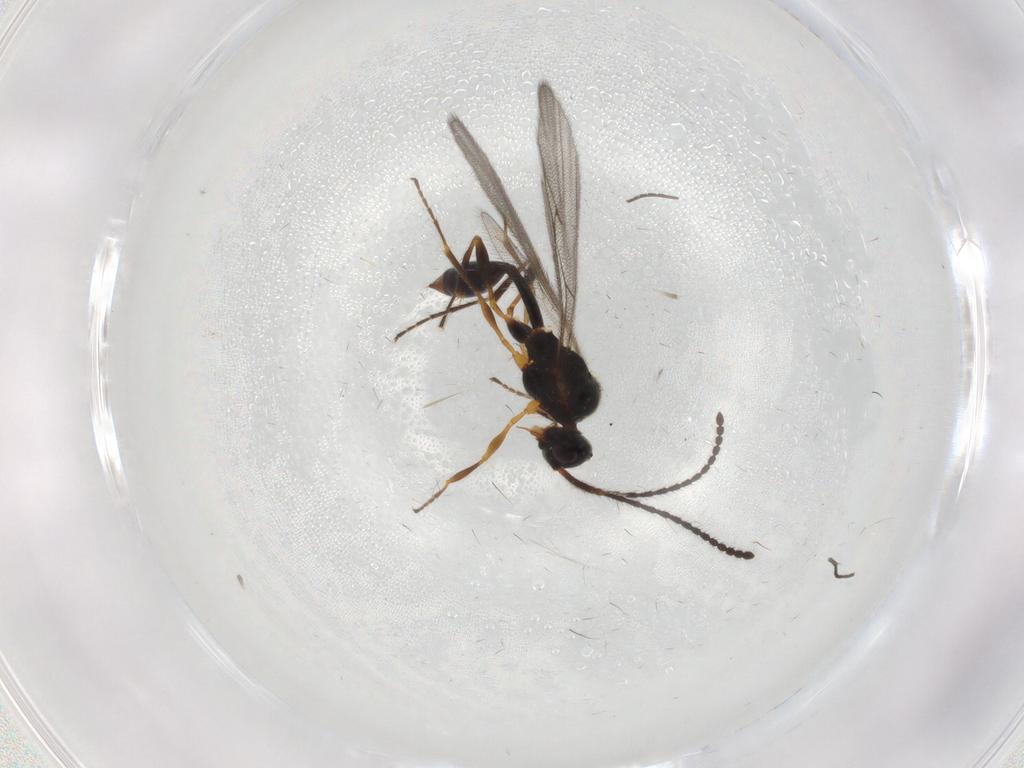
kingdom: Animalia
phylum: Arthropoda
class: Insecta
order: Hymenoptera
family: Diapriidae
